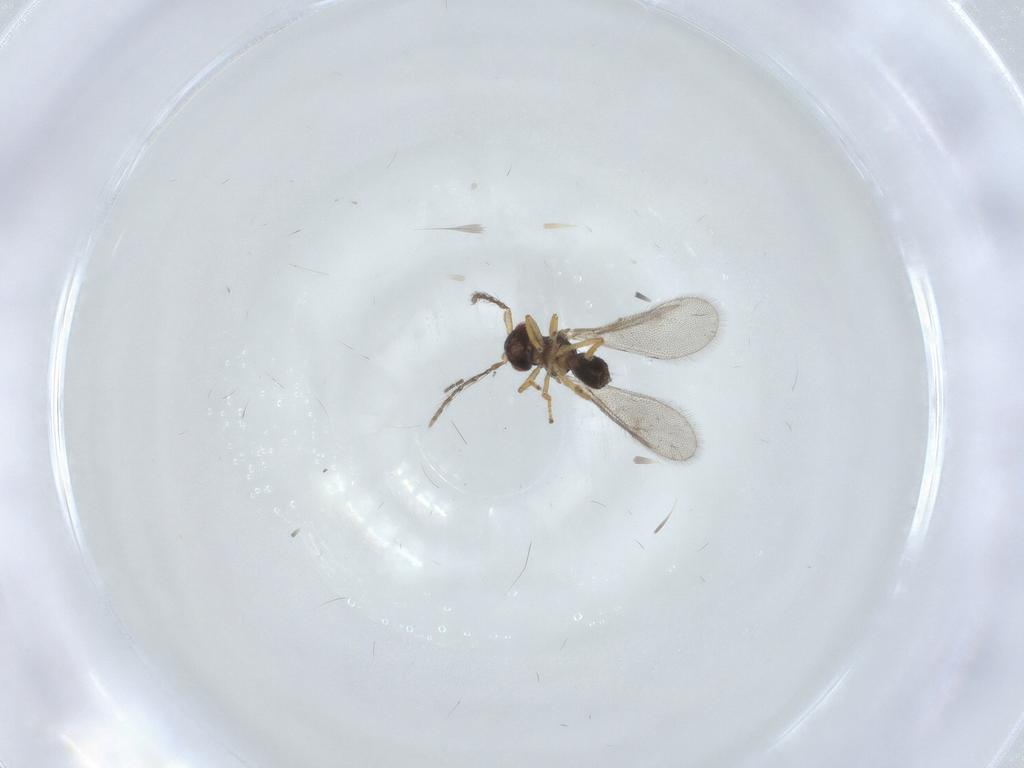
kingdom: Animalia
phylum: Arthropoda
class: Insecta
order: Hymenoptera
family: Eulophidae
